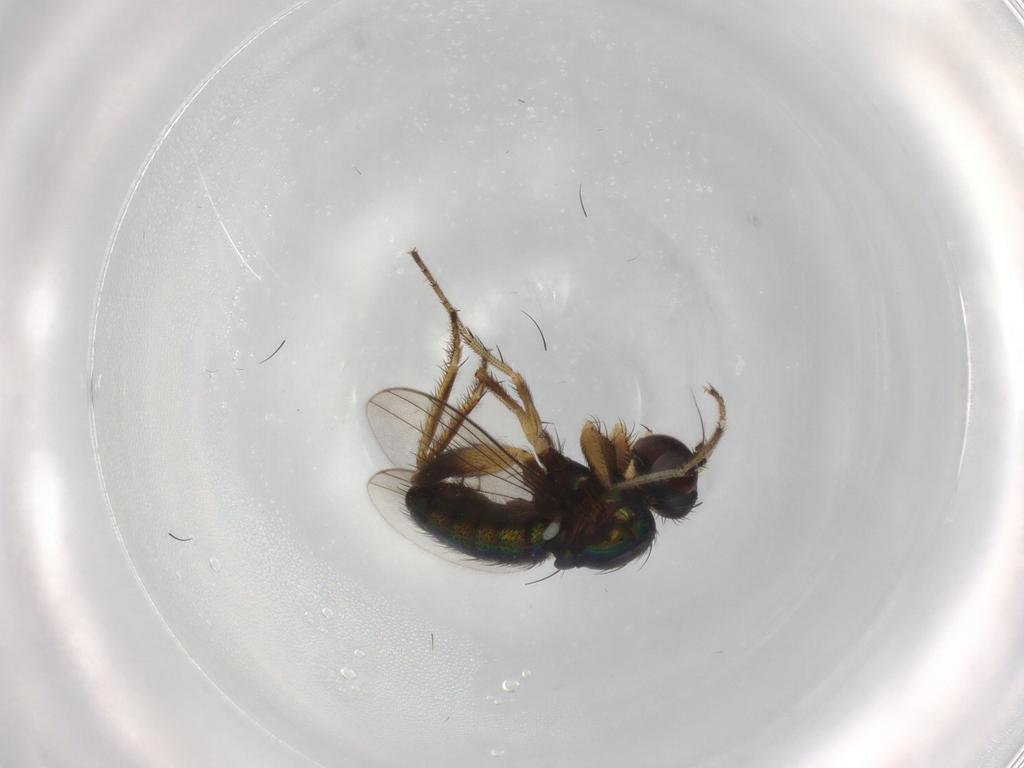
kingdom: Animalia
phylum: Arthropoda
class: Insecta
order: Diptera
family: Dolichopodidae
